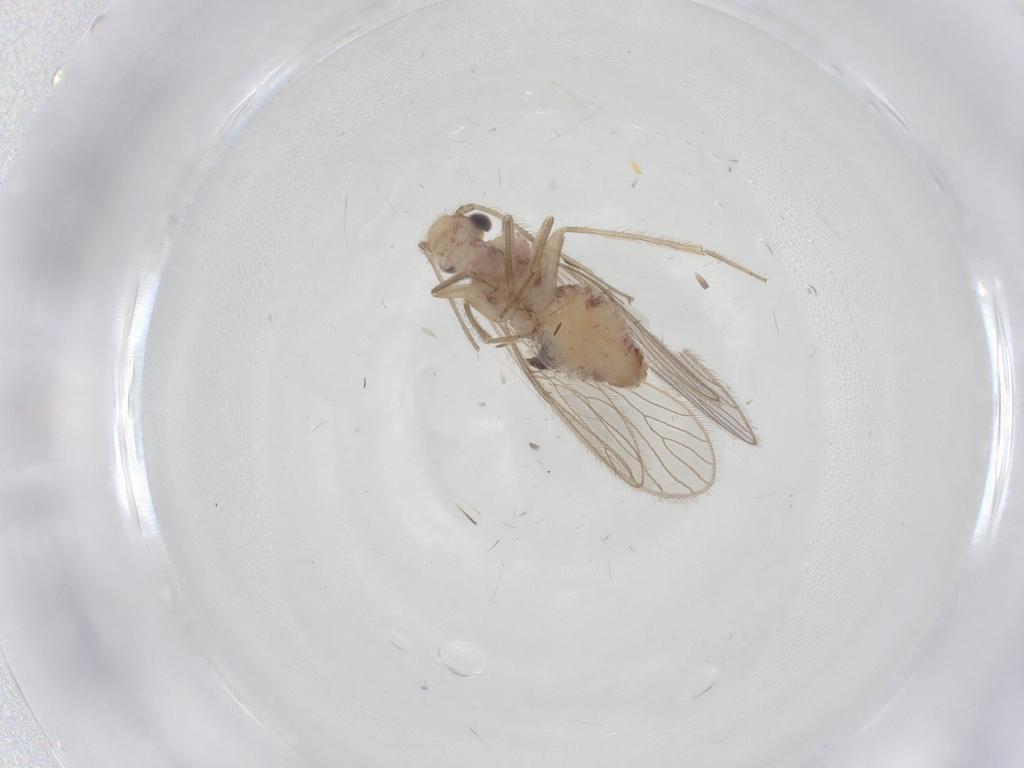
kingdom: Animalia
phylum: Arthropoda
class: Insecta
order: Psocodea
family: Cladiopsocidae
